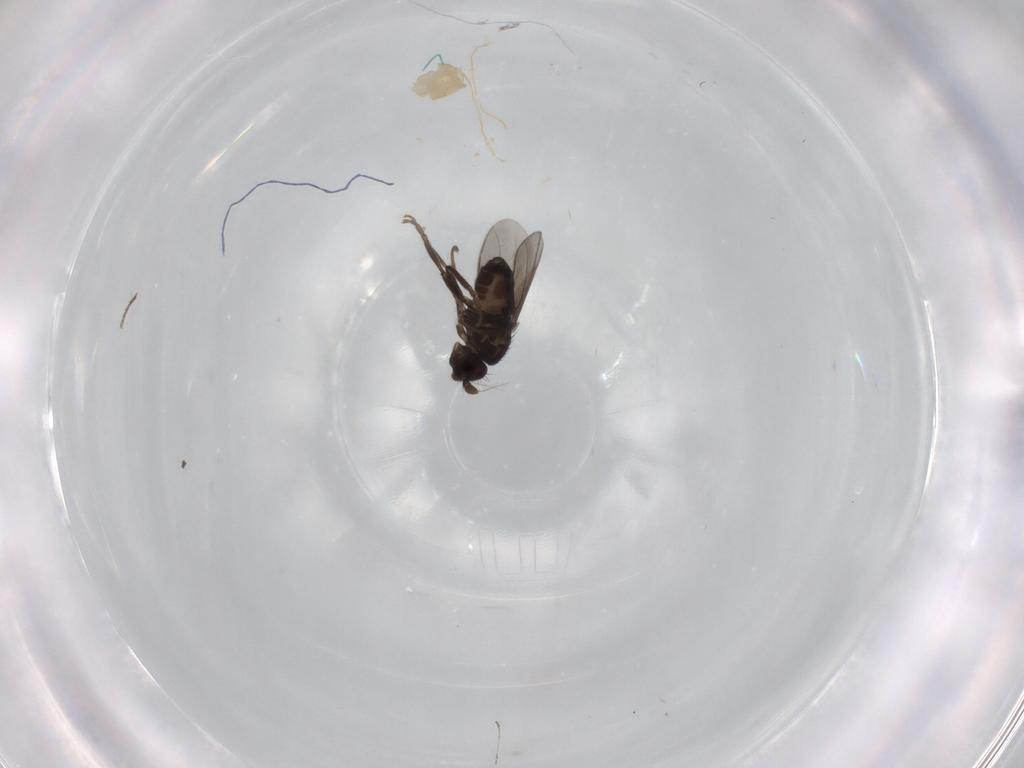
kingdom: Animalia
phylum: Arthropoda
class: Insecta
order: Diptera
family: Sphaeroceridae
